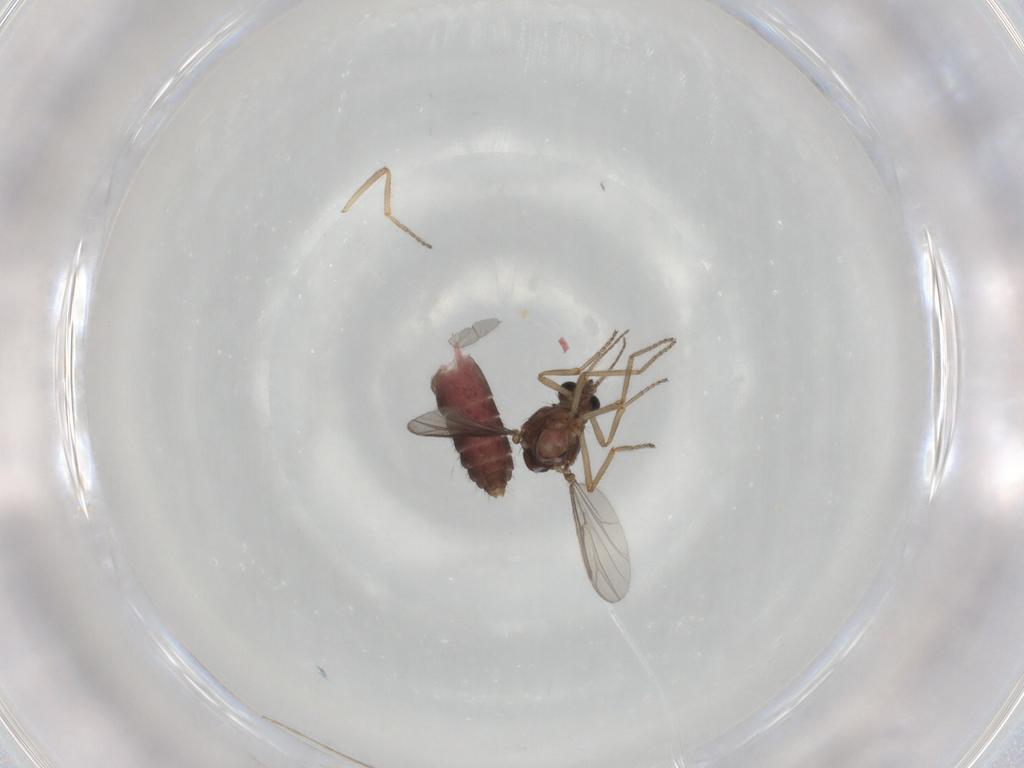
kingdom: Animalia
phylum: Arthropoda
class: Insecta
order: Diptera
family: Ceratopogonidae
